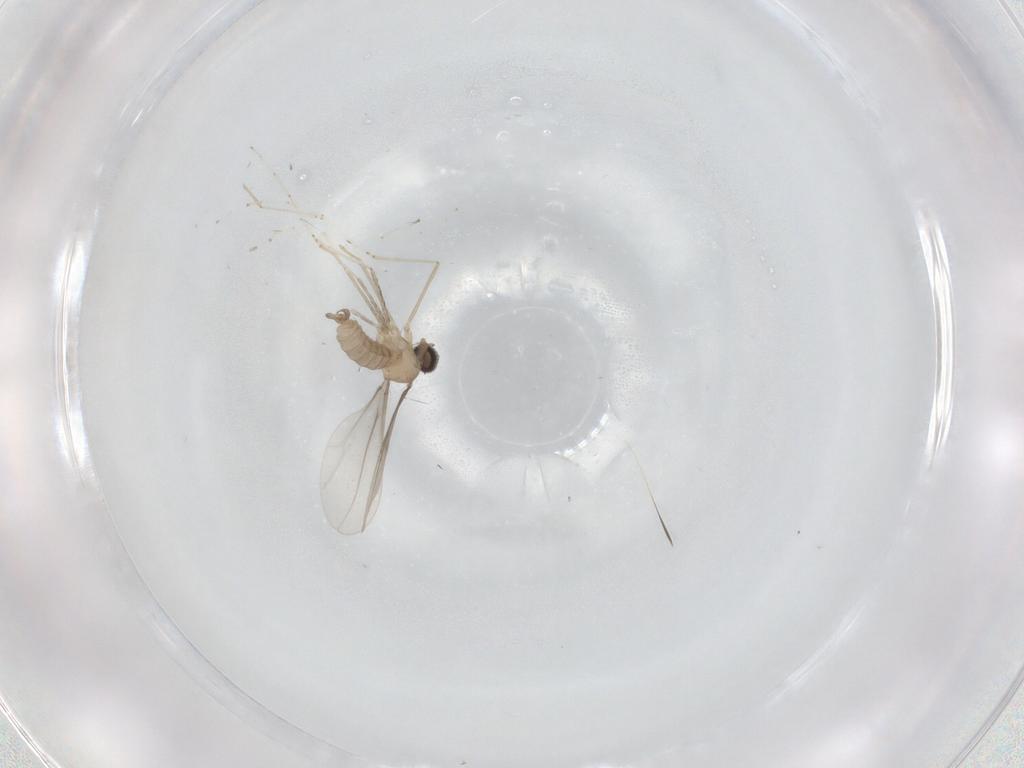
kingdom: Animalia
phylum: Arthropoda
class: Insecta
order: Diptera
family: Cecidomyiidae
